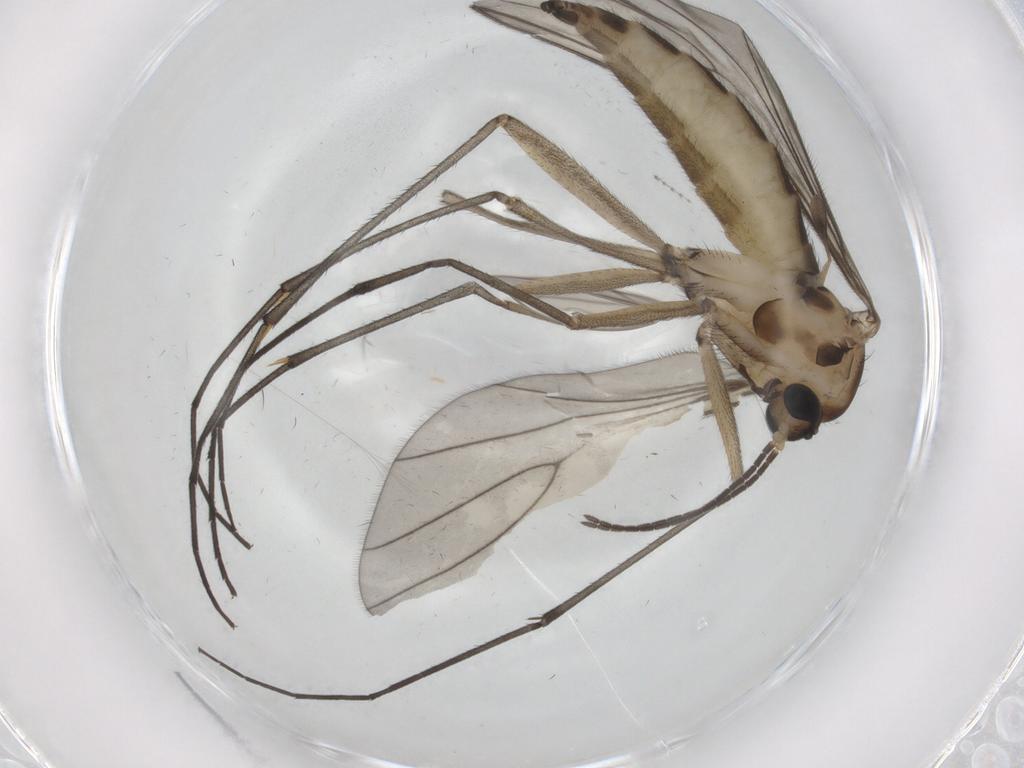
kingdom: Animalia
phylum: Arthropoda
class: Insecta
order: Diptera
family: Sciaridae
